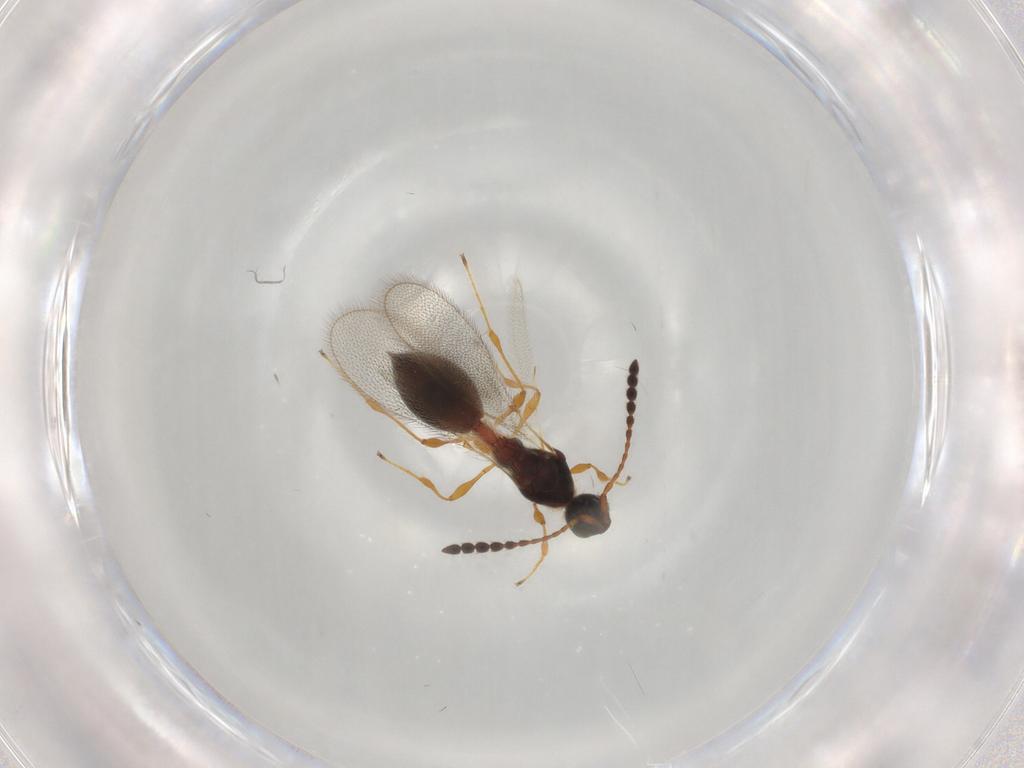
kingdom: Animalia
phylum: Arthropoda
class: Insecta
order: Hymenoptera
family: Diapriidae
